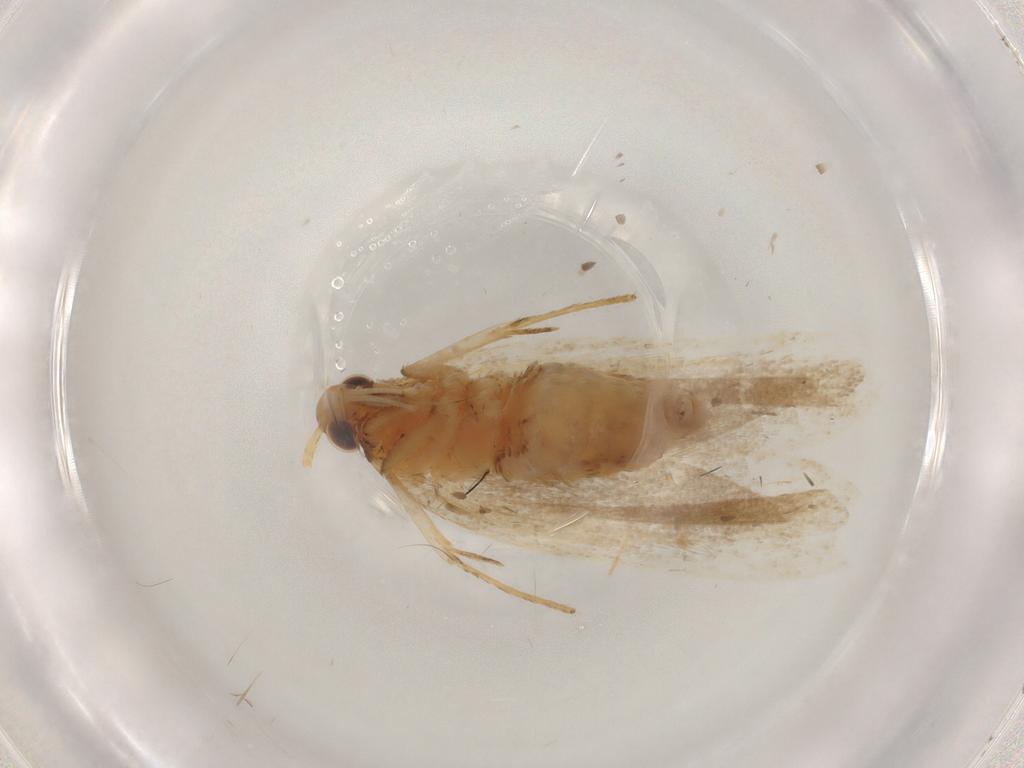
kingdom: Animalia
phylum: Arthropoda
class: Insecta
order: Lepidoptera
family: Lecithoceridae
